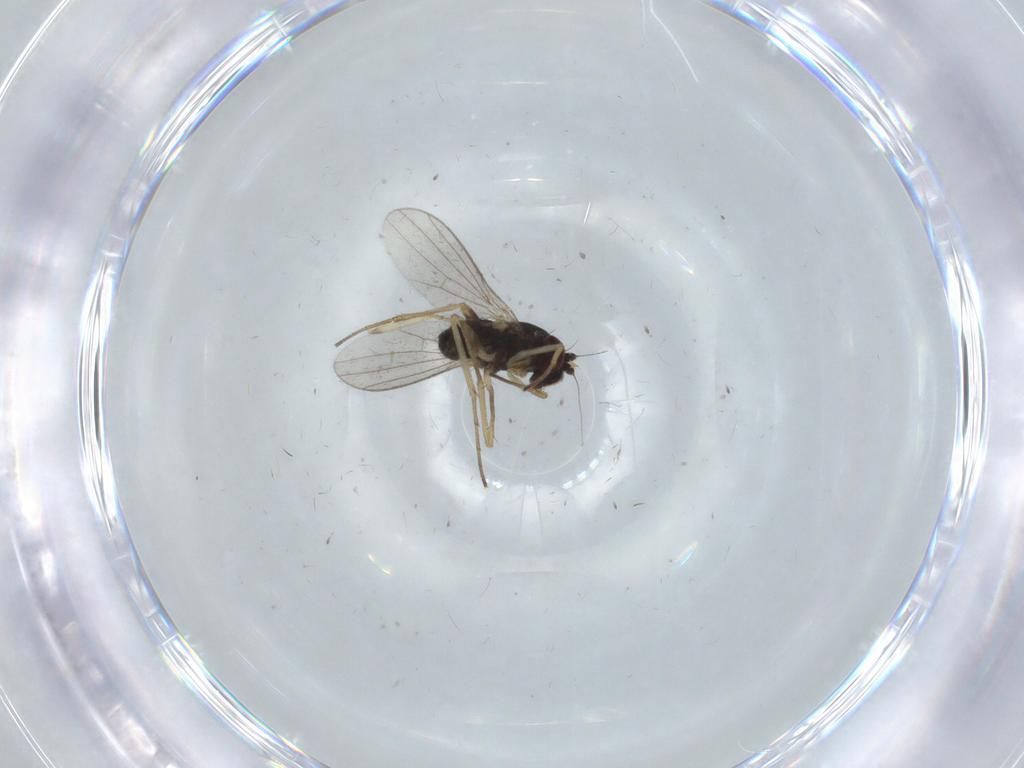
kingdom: Animalia
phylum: Arthropoda
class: Insecta
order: Diptera
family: Dolichopodidae
